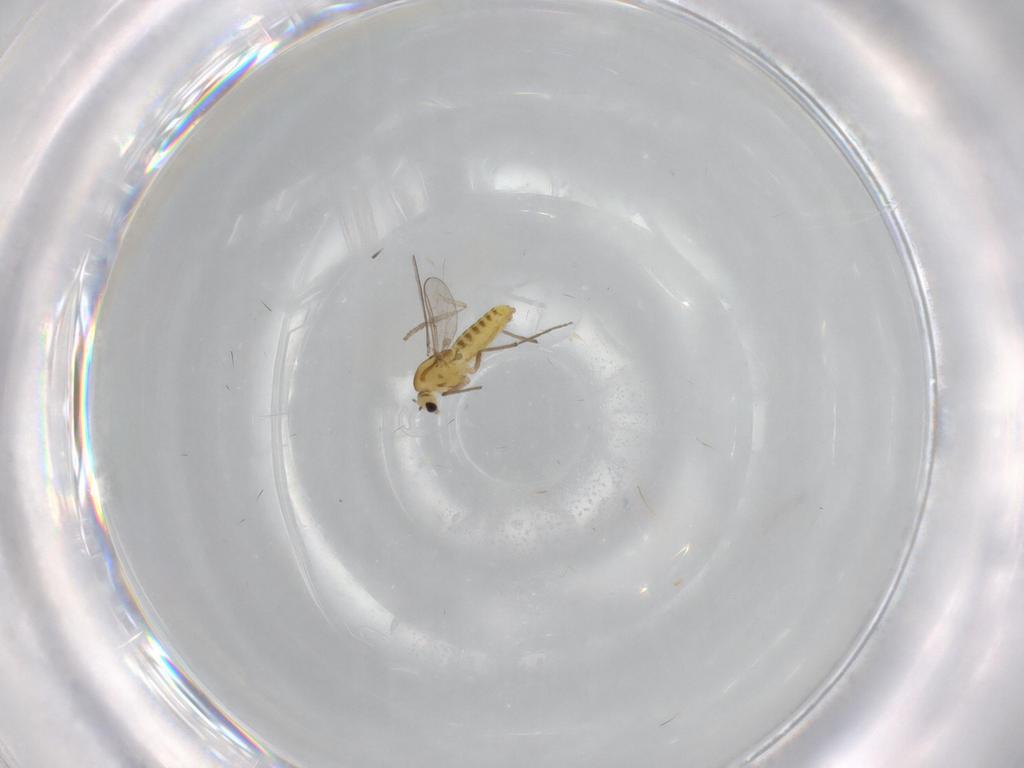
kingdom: Animalia
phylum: Arthropoda
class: Insecta
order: Diptera
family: Chironomidae
